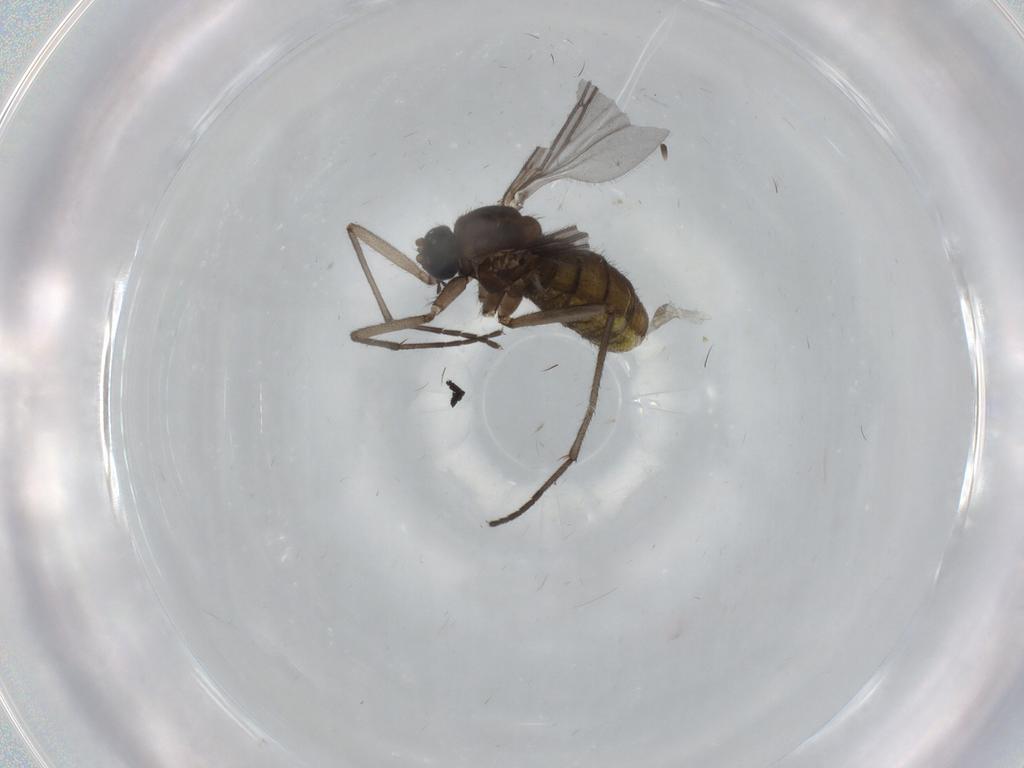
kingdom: Animalia
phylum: Arthropoda
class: Insecta
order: Diptera
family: Sciaridae
